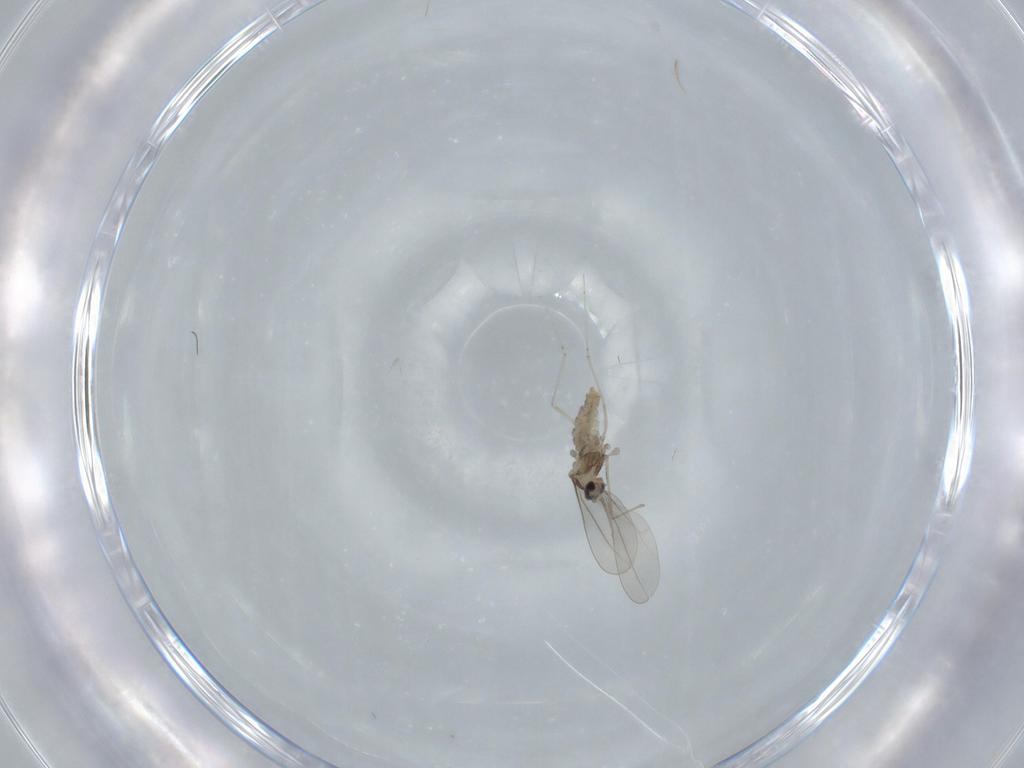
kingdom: Animalia
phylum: Arthropoda
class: Insecta
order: Diptera
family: Cecidomyiidae
